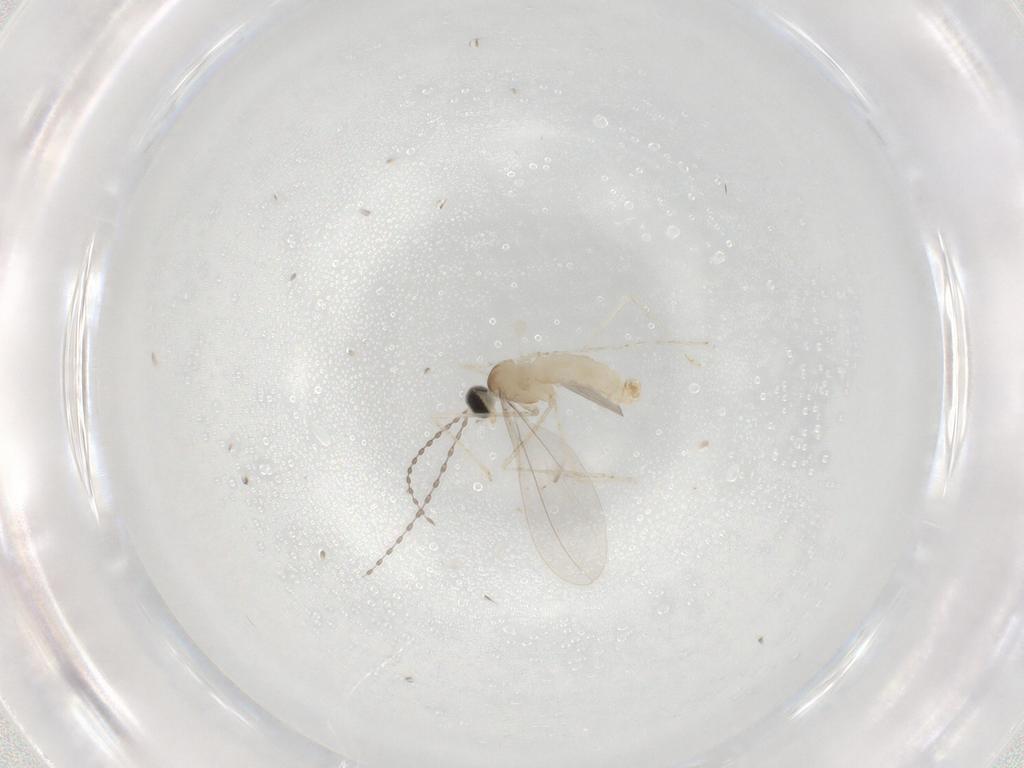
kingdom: Animalia
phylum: Arthropoda
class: Insecta
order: Diptera
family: Cecidomyiidae
